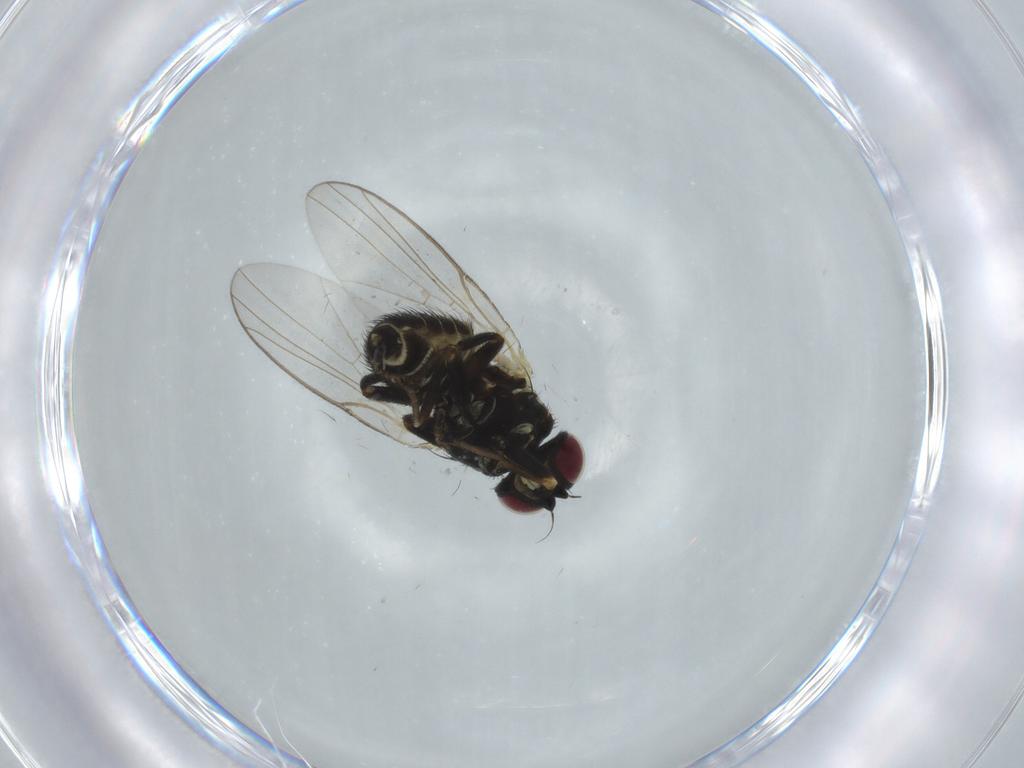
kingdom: Animalia
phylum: Arthropoda
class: Insecta
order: Diptera
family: Agromyzidae
